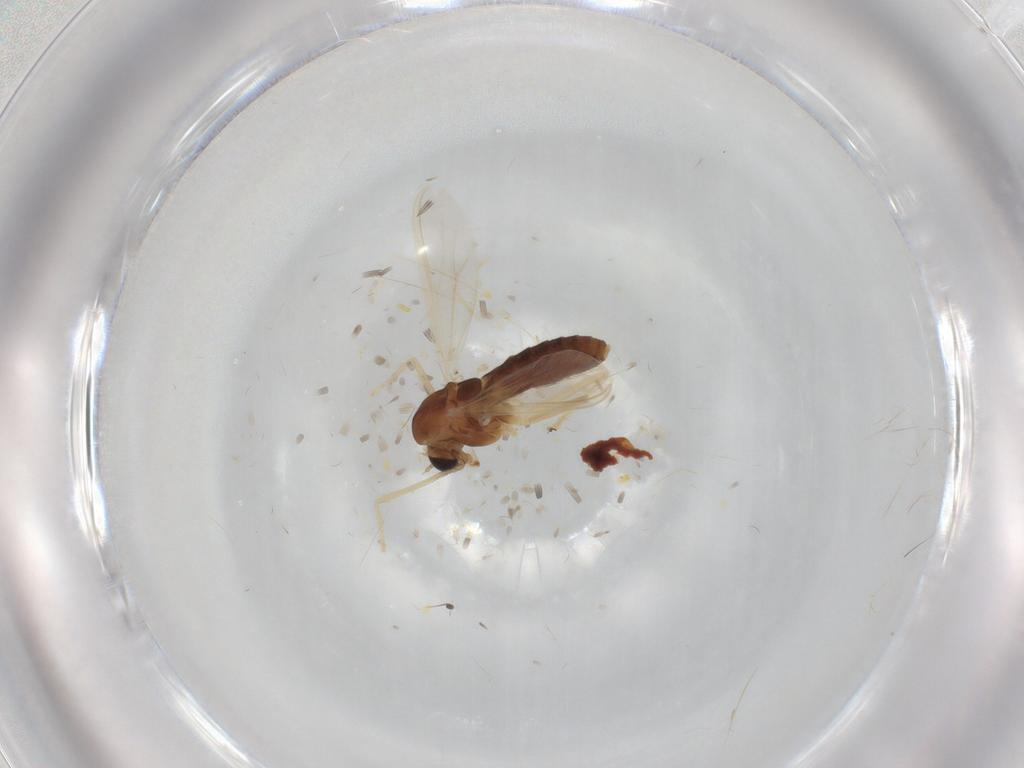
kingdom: Animalia
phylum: Arthropoda
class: Insecta
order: Diptera
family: Chironomidae
